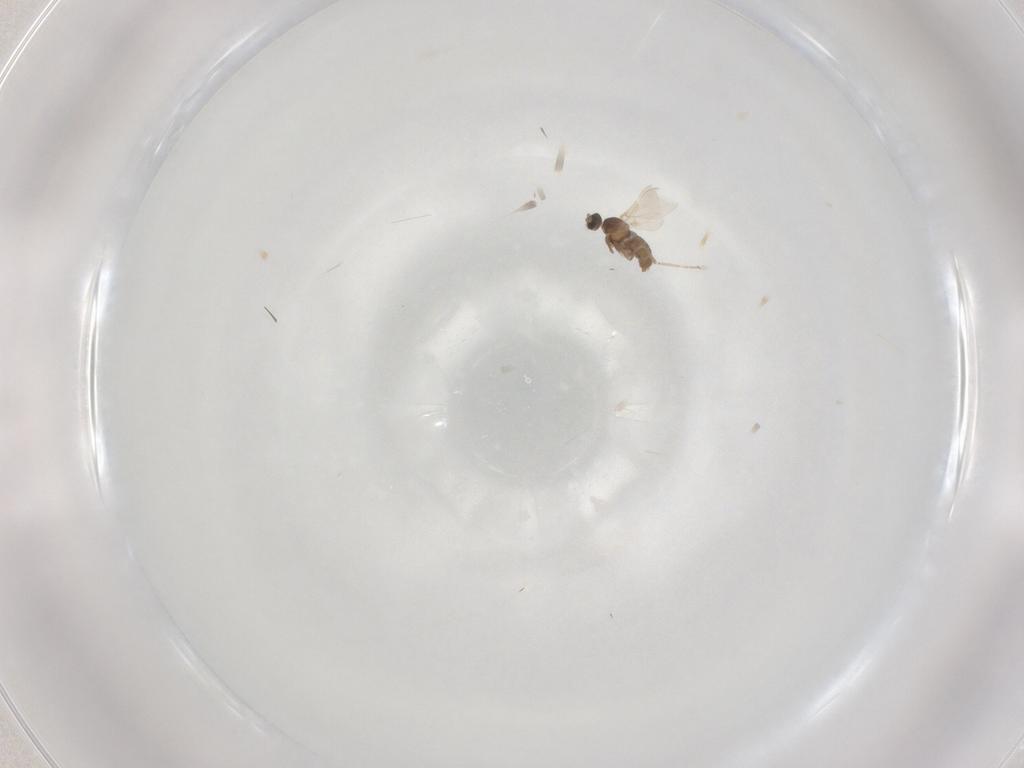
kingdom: Animalia
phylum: Arthropoda
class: Insecta
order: Diptera
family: Cecidomyiidae
